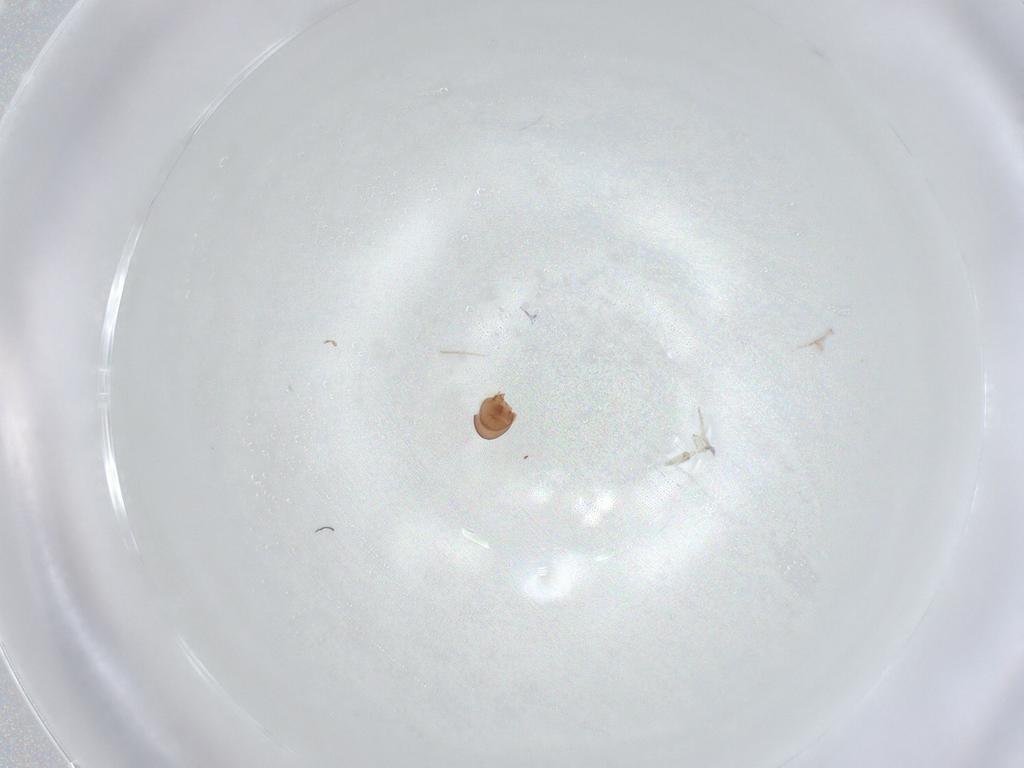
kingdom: Animalia
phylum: Arthropoda
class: Arachnida
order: Sarcoptiformes
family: Scheloribatidae
